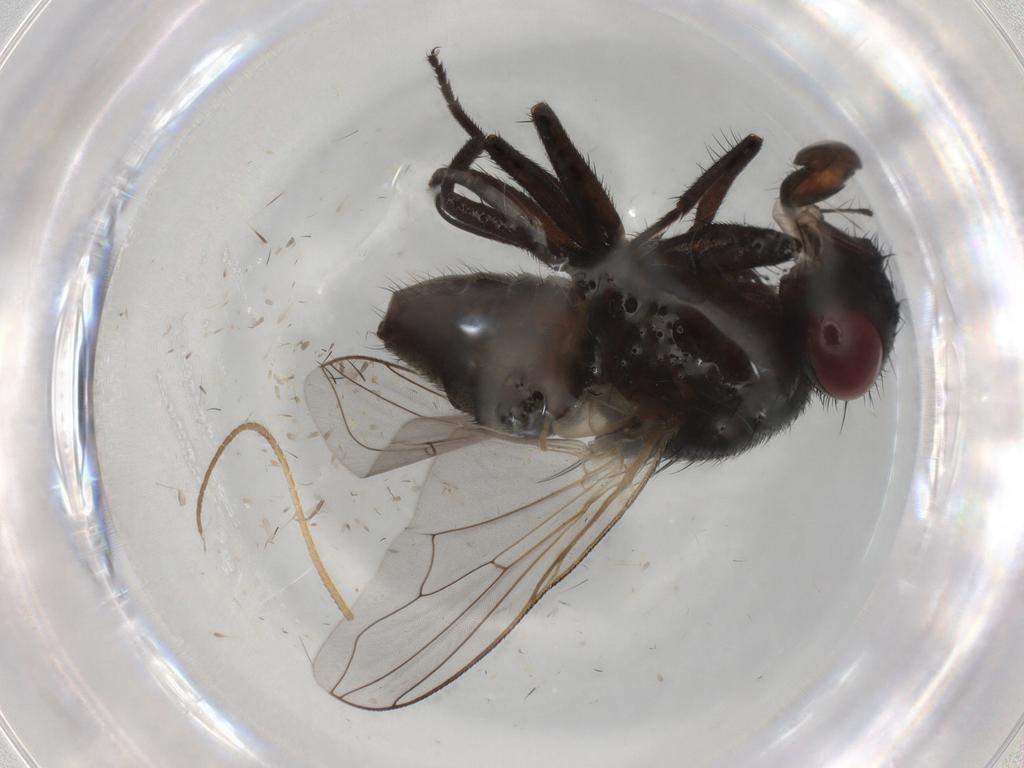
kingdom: Animalia
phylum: Arthropoda
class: Insecta
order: Diptera
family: Muscidae
